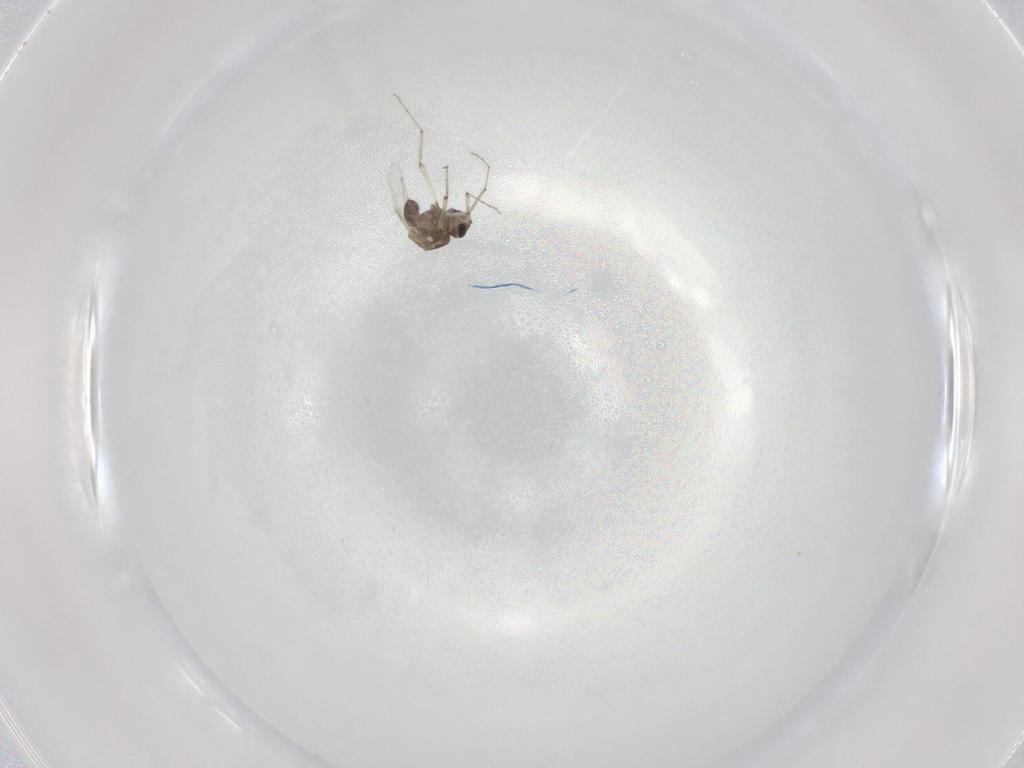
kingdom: Animalia
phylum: Arthropoda
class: Insecta
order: Diptera
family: Ceratopogonidae
